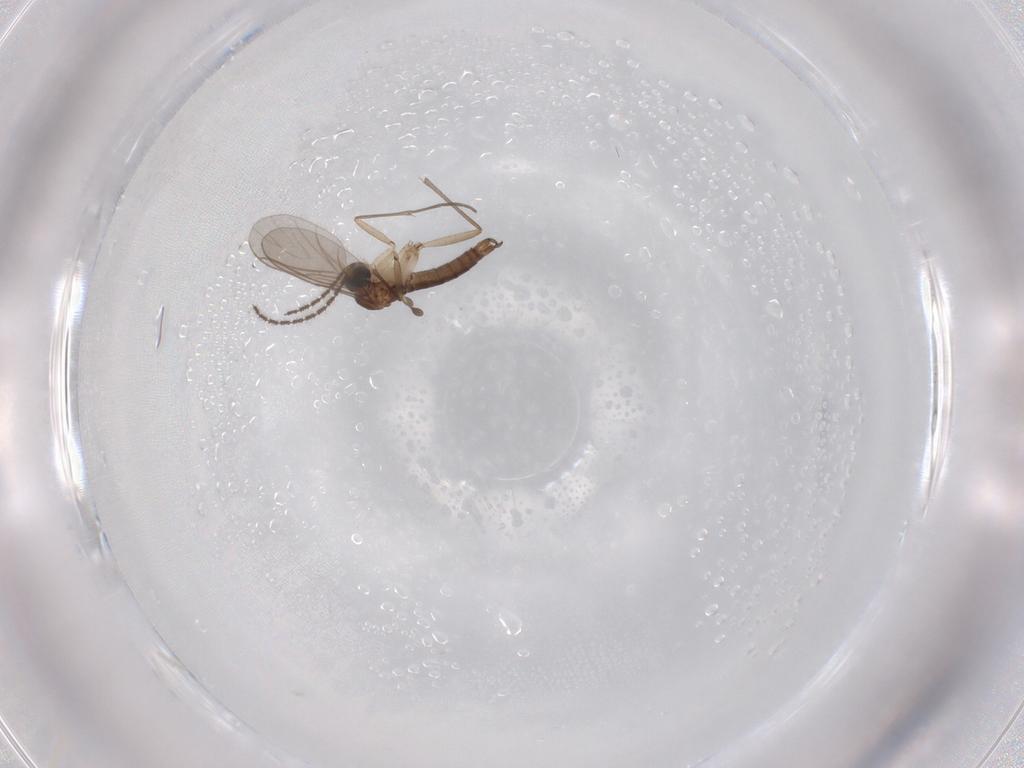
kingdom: Animalia
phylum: Arthropoda
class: Insecta
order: Diptera
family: Sciaridae
